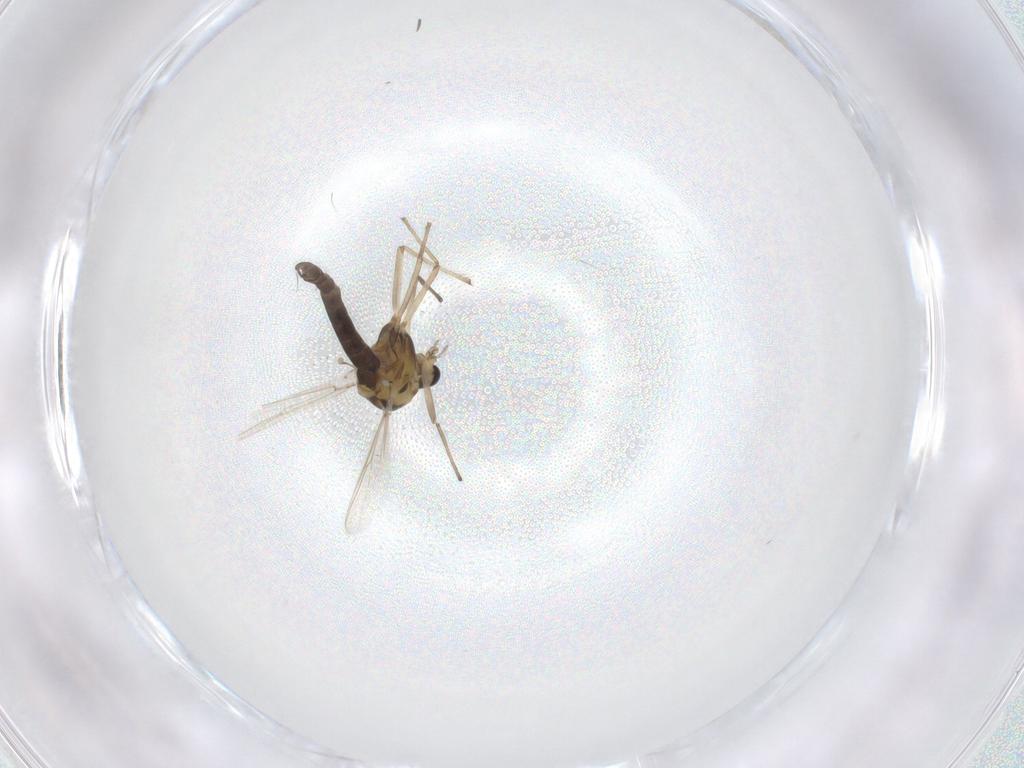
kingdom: Animalia
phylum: Arthropoda
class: Insecta
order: Diptera
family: Chironomidae
